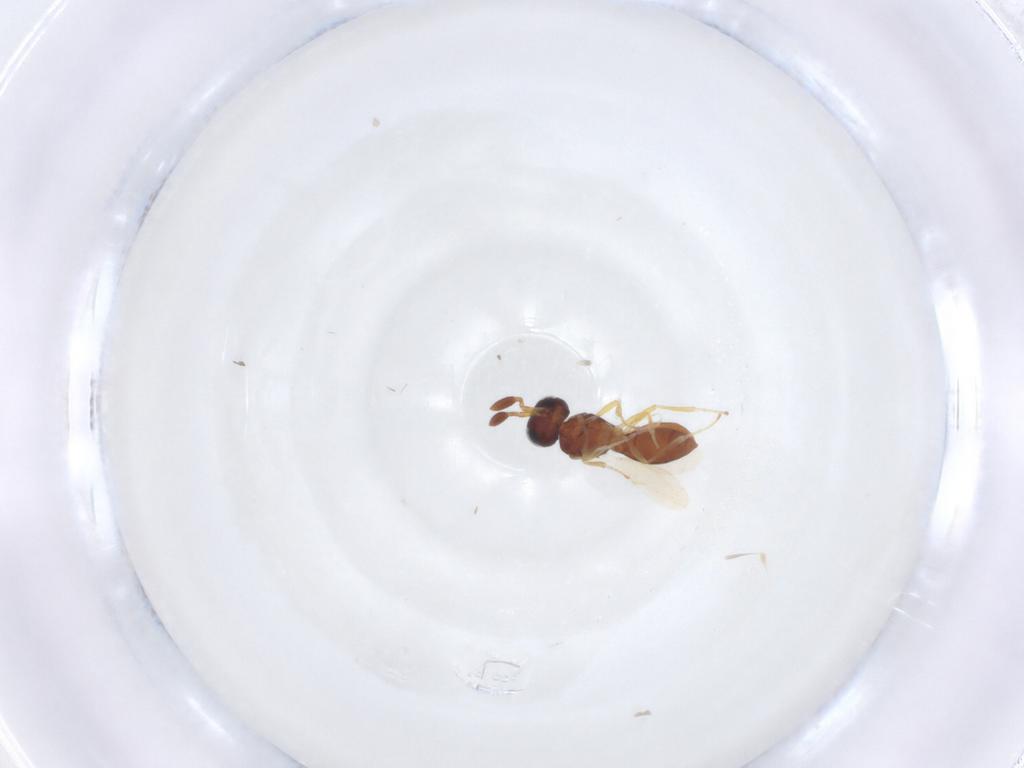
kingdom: Animalia
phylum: Arthropoda
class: Insecta
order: Hymenoptera
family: Scelionidae
